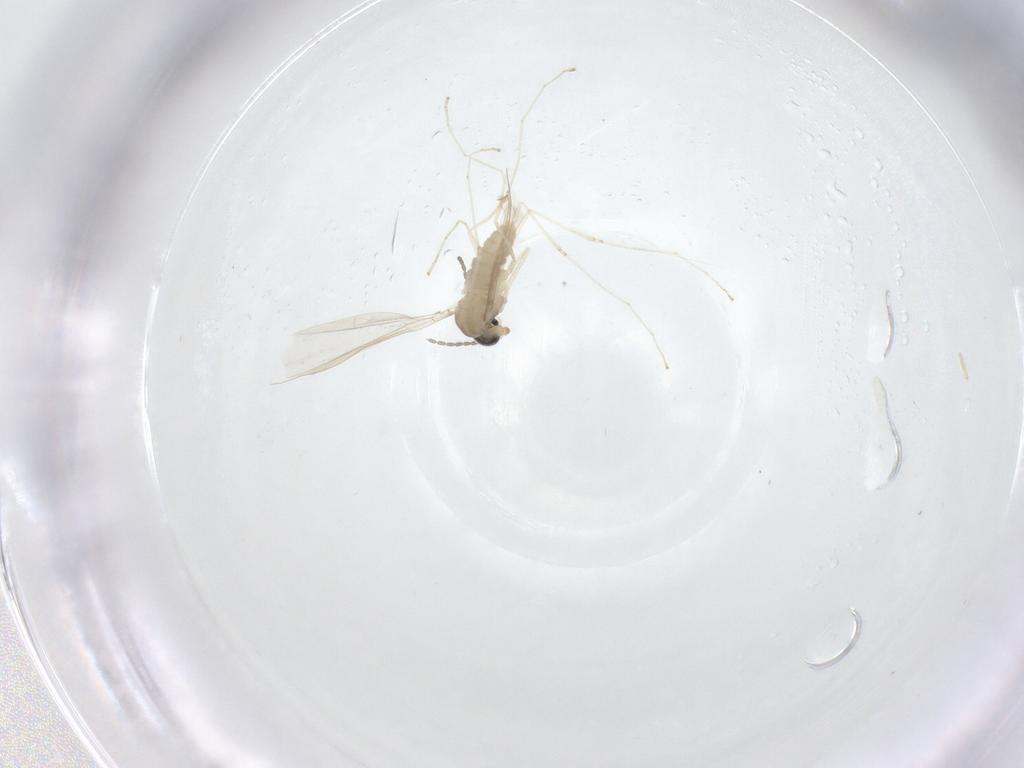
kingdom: Animalia
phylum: Arthropoda
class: Insecta
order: Diptera
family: Cecidomyiidae
